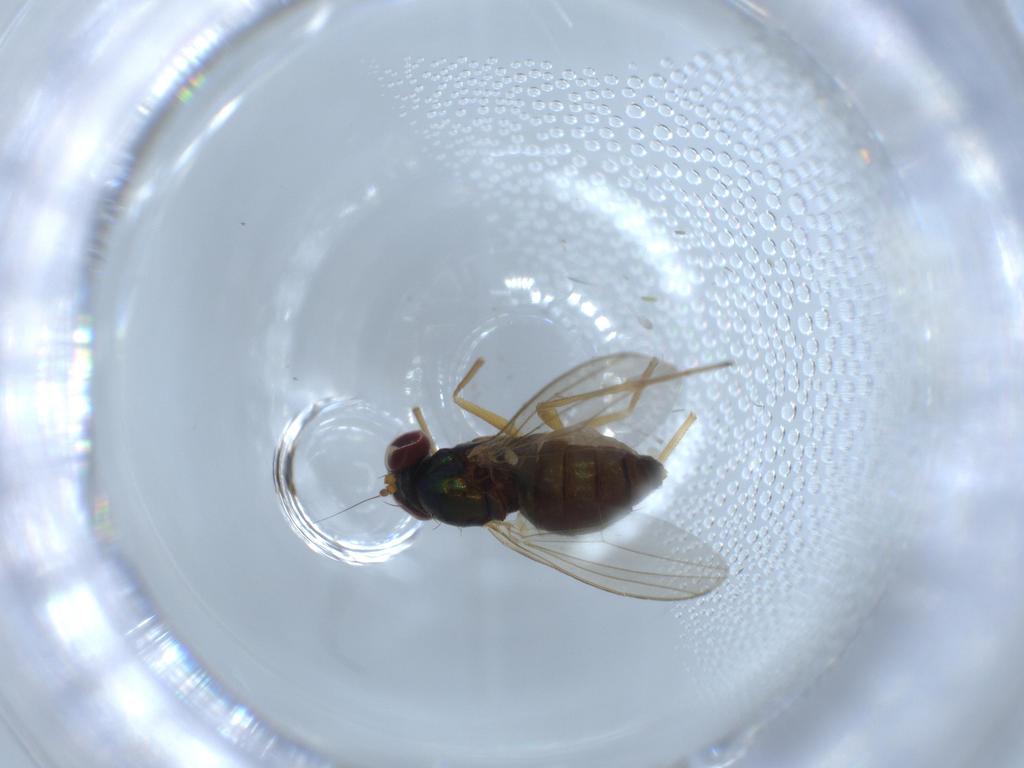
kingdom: Animalia
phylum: Arthropoda
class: Insecta
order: Diptera
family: Dolichopodidae
